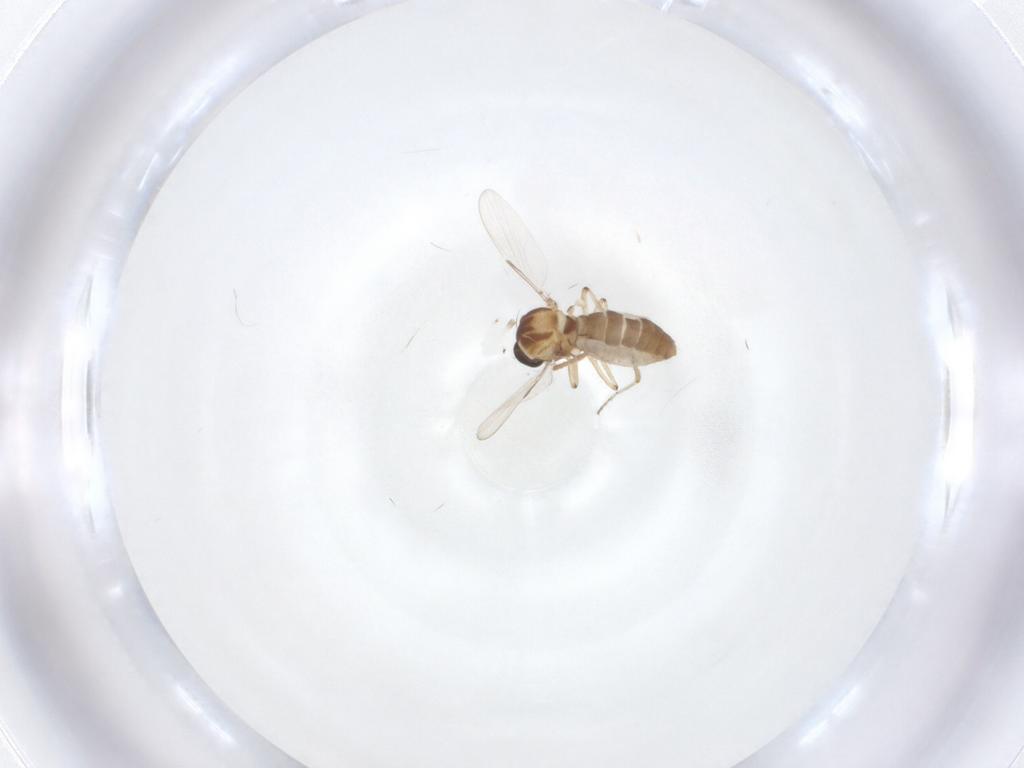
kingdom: Animalia
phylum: Arthropoda
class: Insecta
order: Diptera
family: Ceratopogonidae
